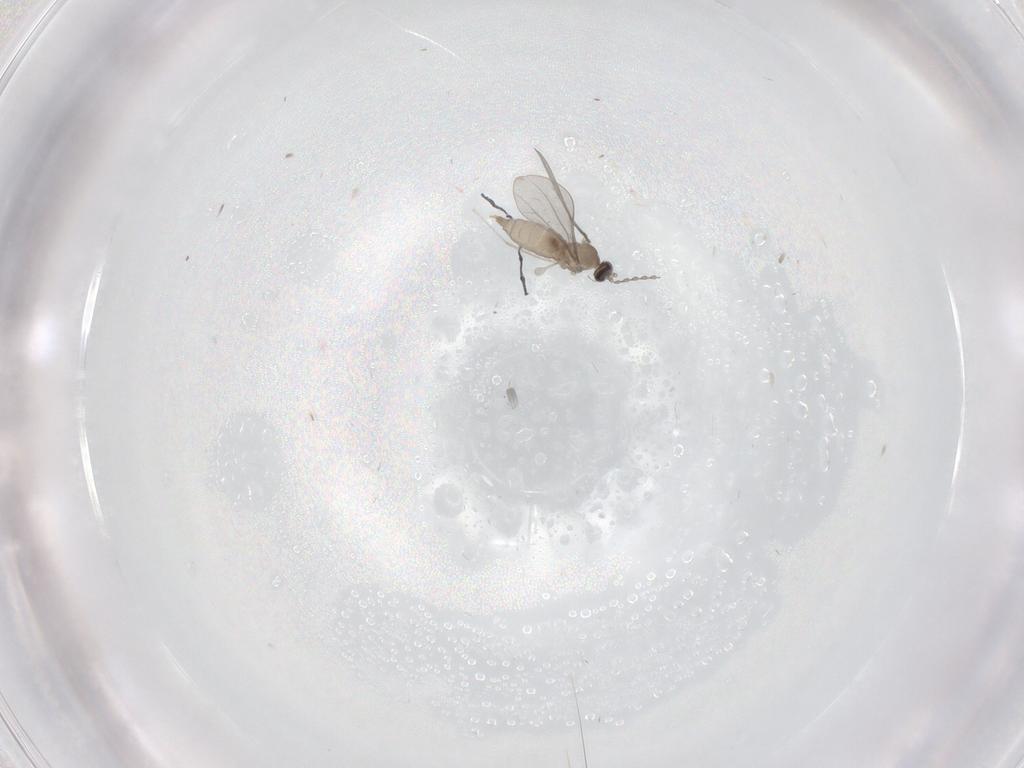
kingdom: Animalia
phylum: Arthropoda
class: Insecta
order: Diptera
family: Cecidomyiidae
